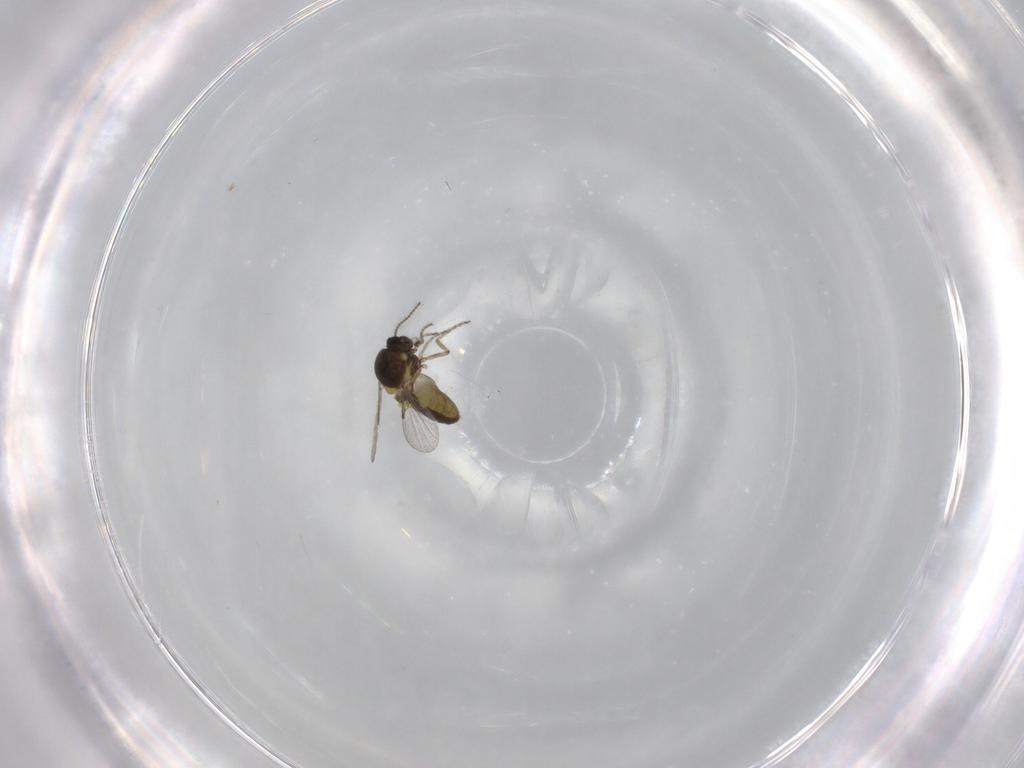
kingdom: Animalia
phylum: Arthropoda
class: Insecta
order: Diptera
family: Ceratopogonidae
